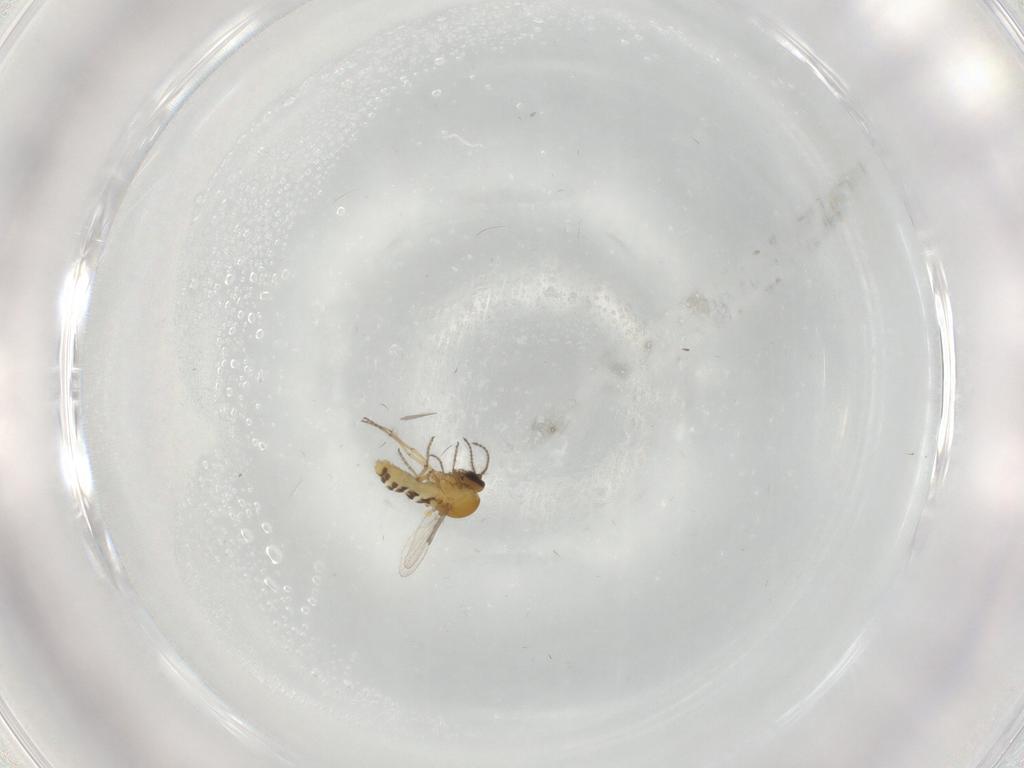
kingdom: Animalia
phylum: Arthropoda
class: Insecta
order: Diptera
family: Ceratopogonidae
